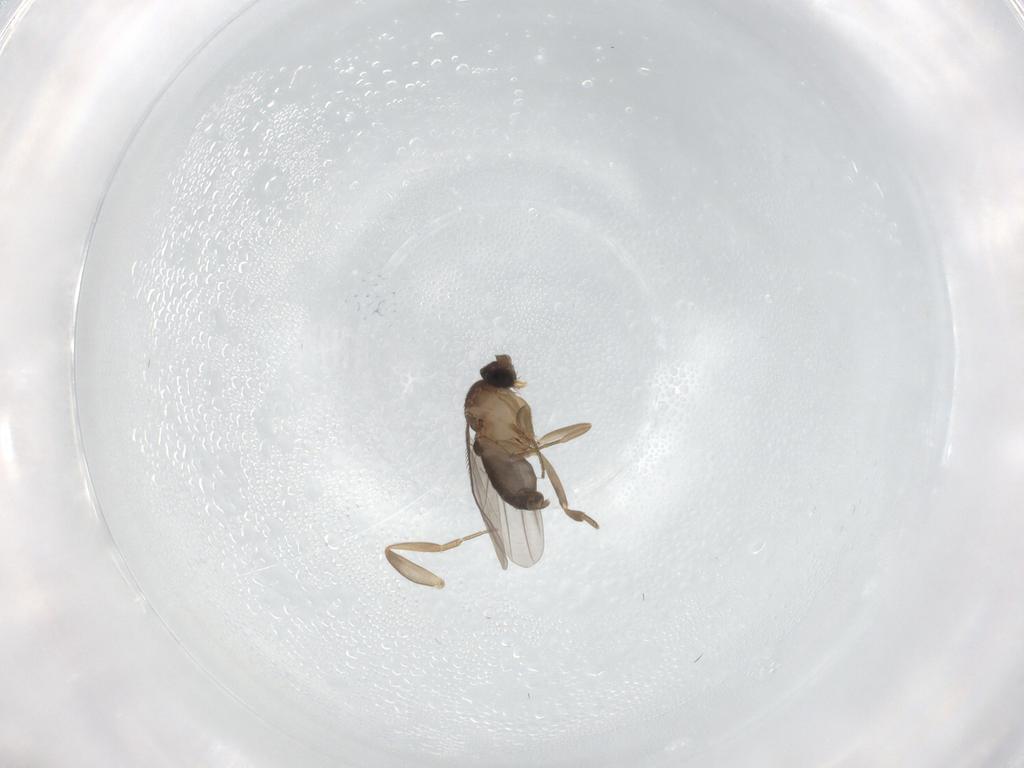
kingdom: Animalia
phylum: Arthropoda
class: Insecta
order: Diptera
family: Phoridae
